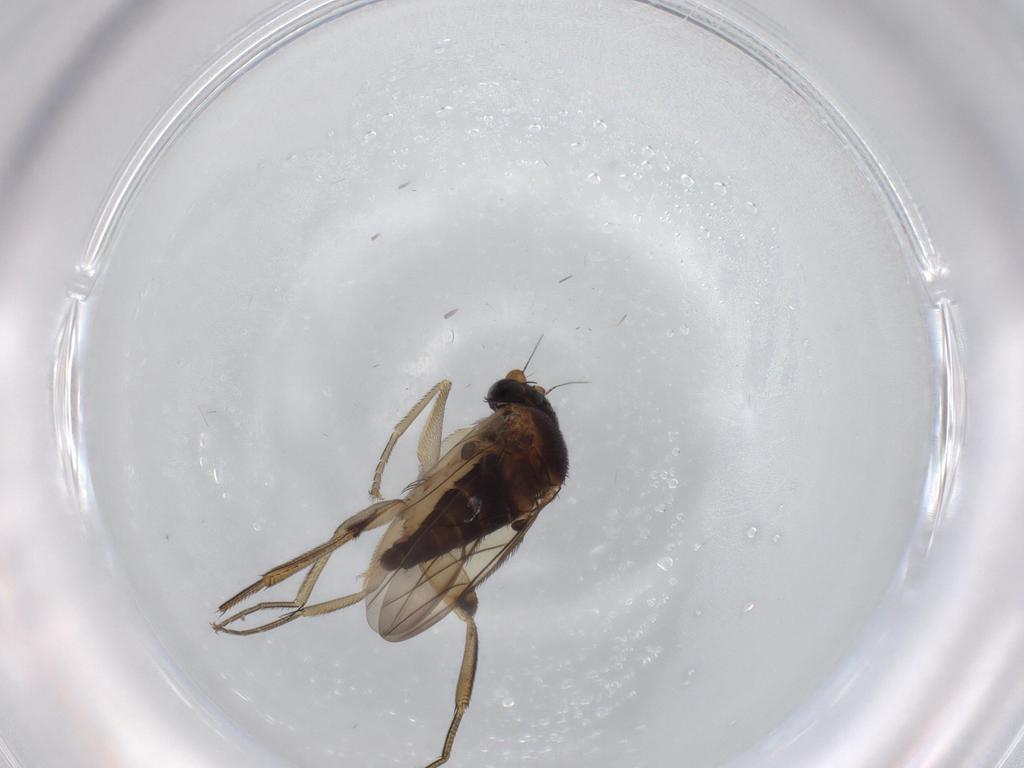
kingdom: Animalia
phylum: Arthropoda
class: Insecta
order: Diptera
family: Phoridae
